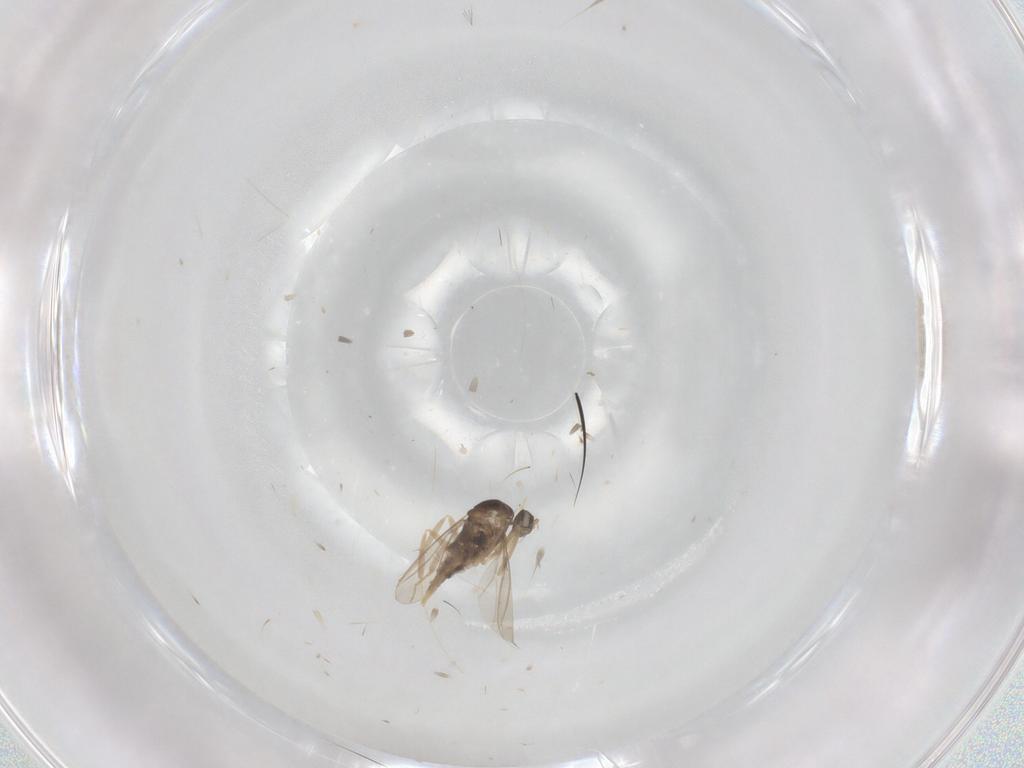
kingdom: Animalia
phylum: Arthropoda
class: Insecta
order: Diptera
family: Cecidomyiidae
